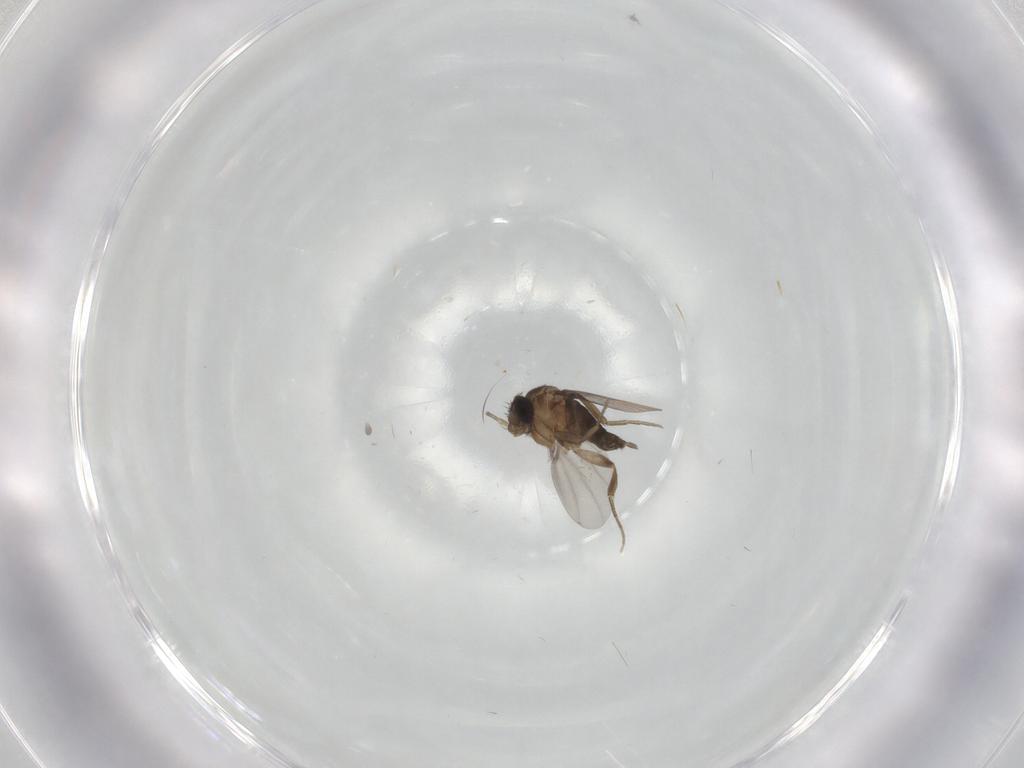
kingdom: Animalia
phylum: Arthropoda
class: Insecta
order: Diptera
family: Phoridae
